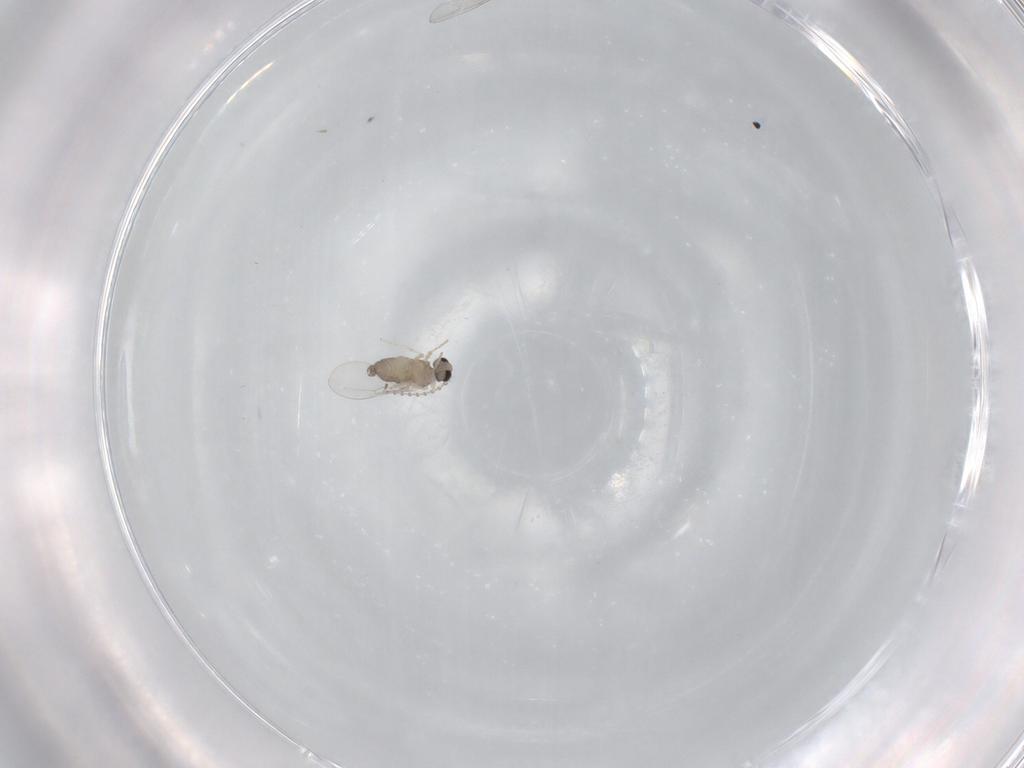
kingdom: Animalia
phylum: Arthropoda
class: Insecta
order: Diptera
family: Cecidomyiidae
